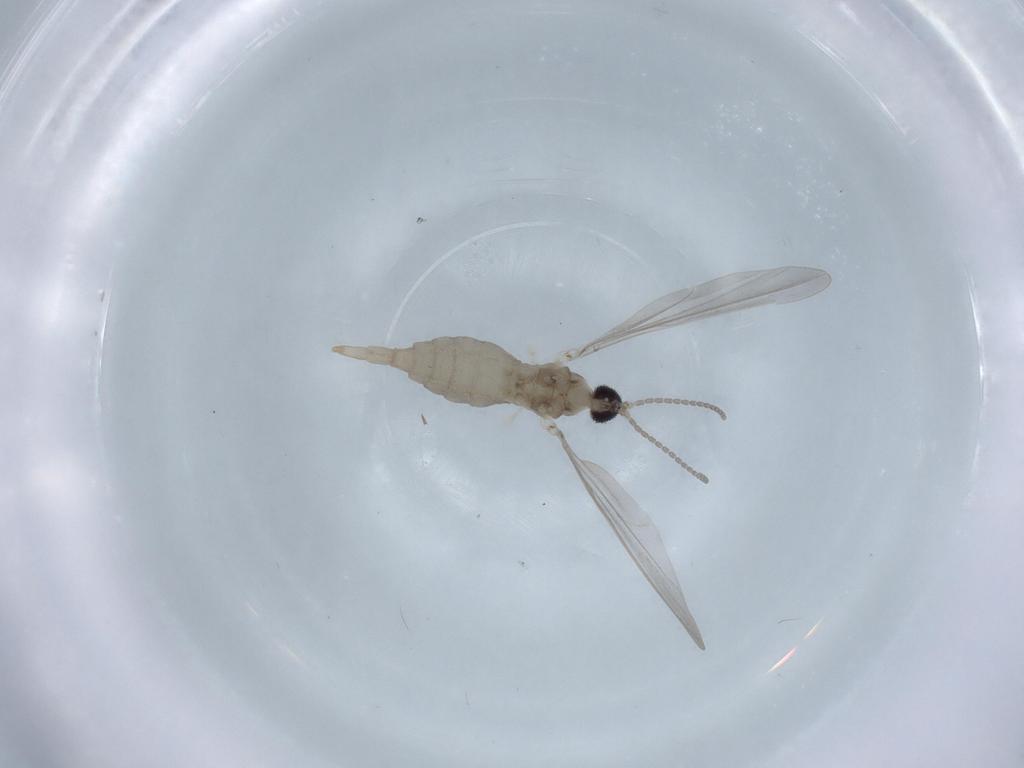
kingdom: Animalia
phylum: Arthropoda
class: Insecta
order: Diptera
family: Cecidomyiidae
